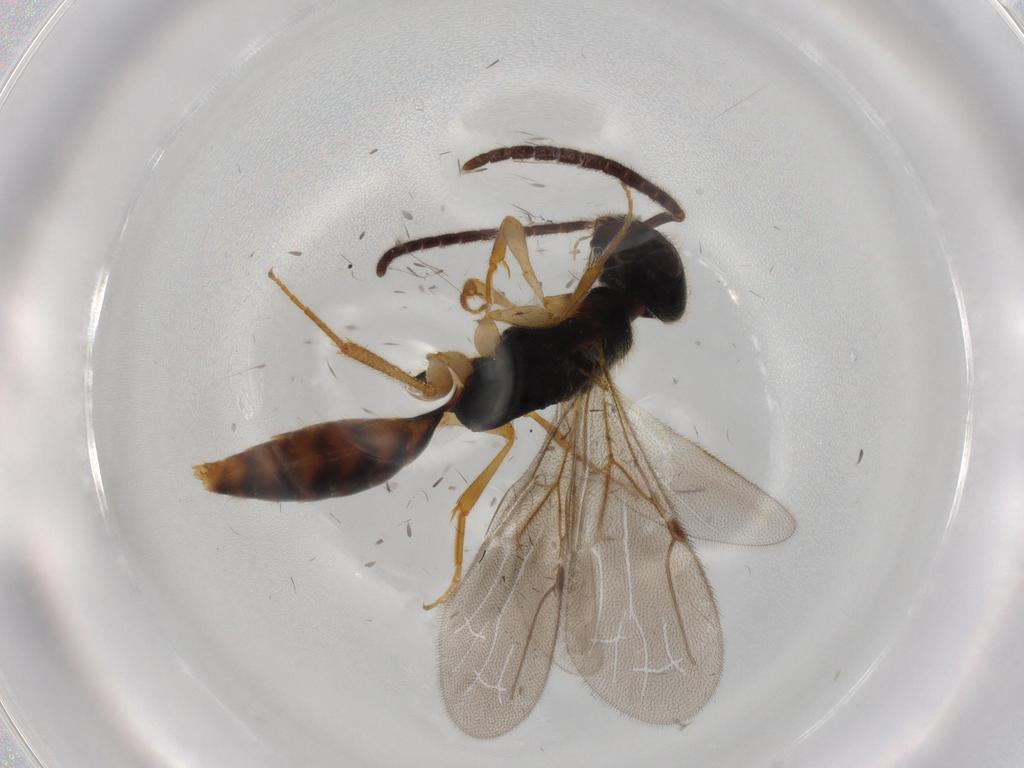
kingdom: Animalia
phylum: Arthropoda
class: Insecta
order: Hymenoptera
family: Bethylidae
